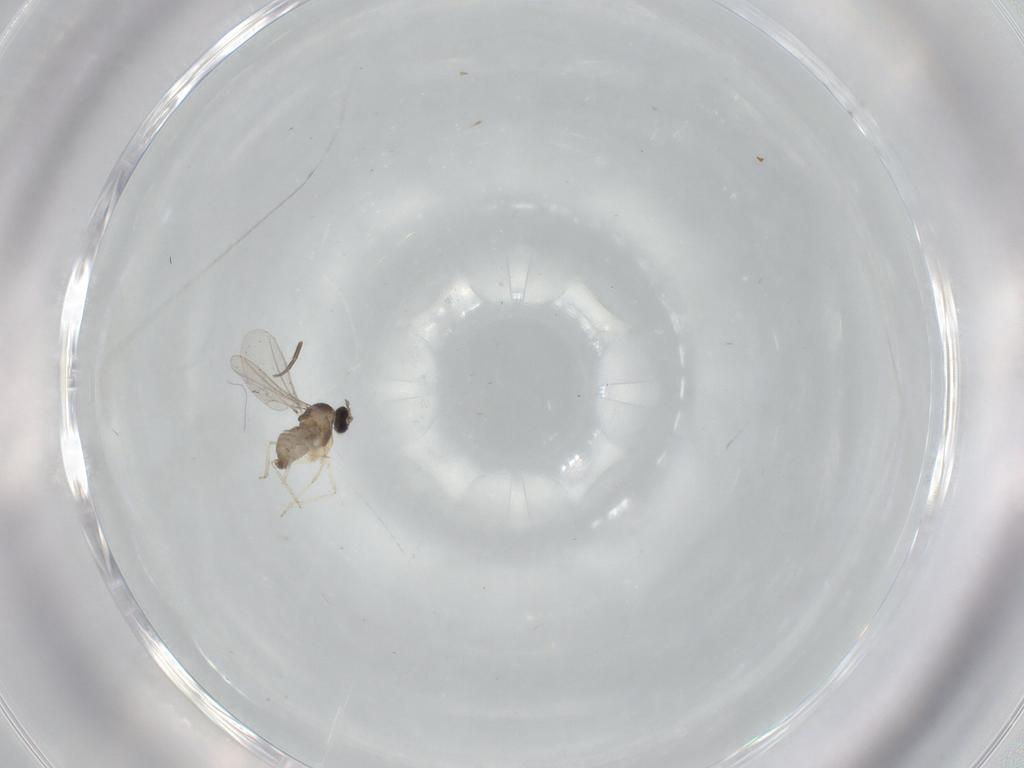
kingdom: Animalia
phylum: Arthropoda
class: Insecta
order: Diptera
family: Cecidomyiidae
